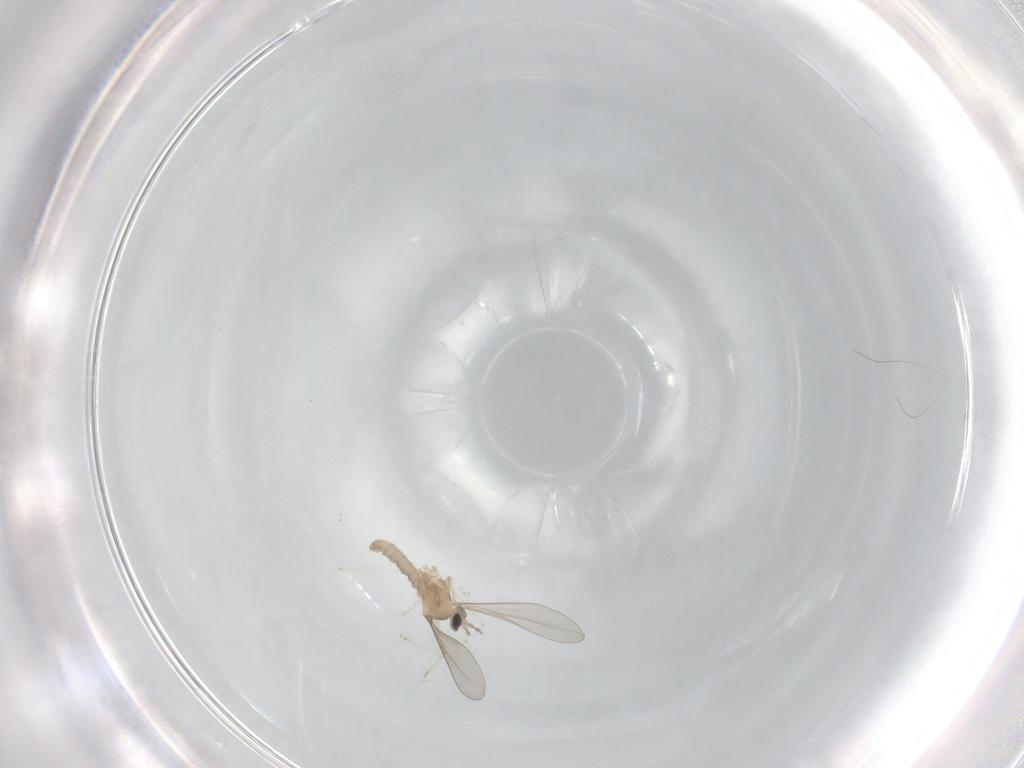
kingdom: Animalia
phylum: Arthropoda
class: Insecta
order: Diptera
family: Cecidomyiidae
